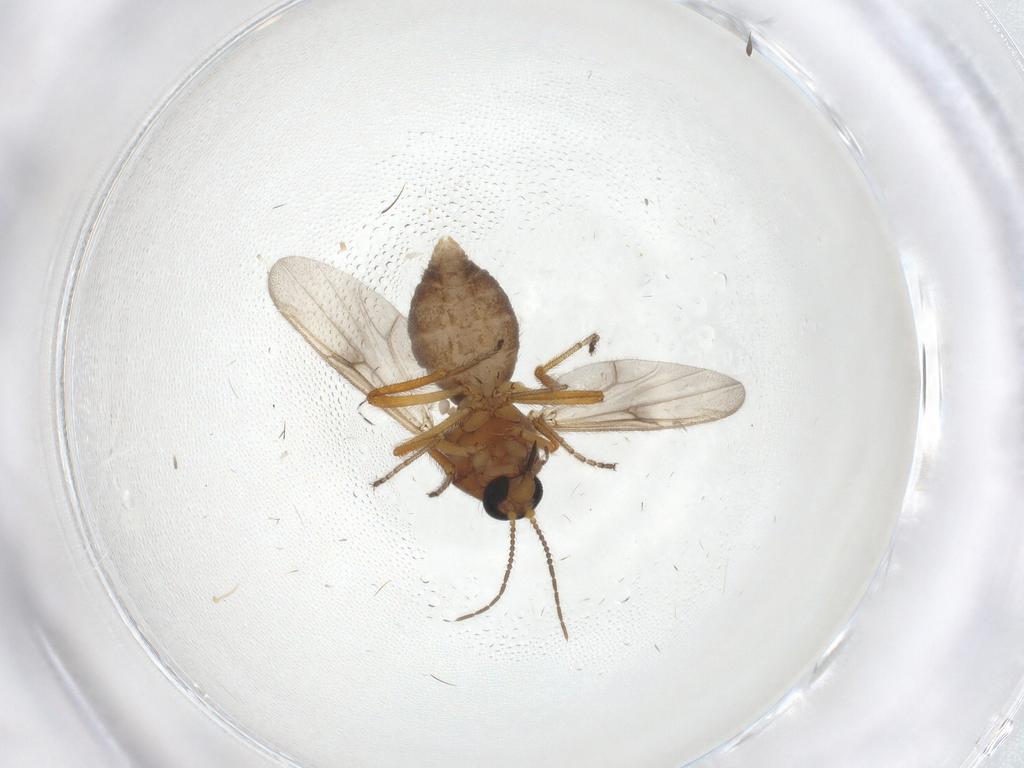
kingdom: Animalia
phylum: Arthropoda
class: Insecta
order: Diptera
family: Ceratopogonidae
